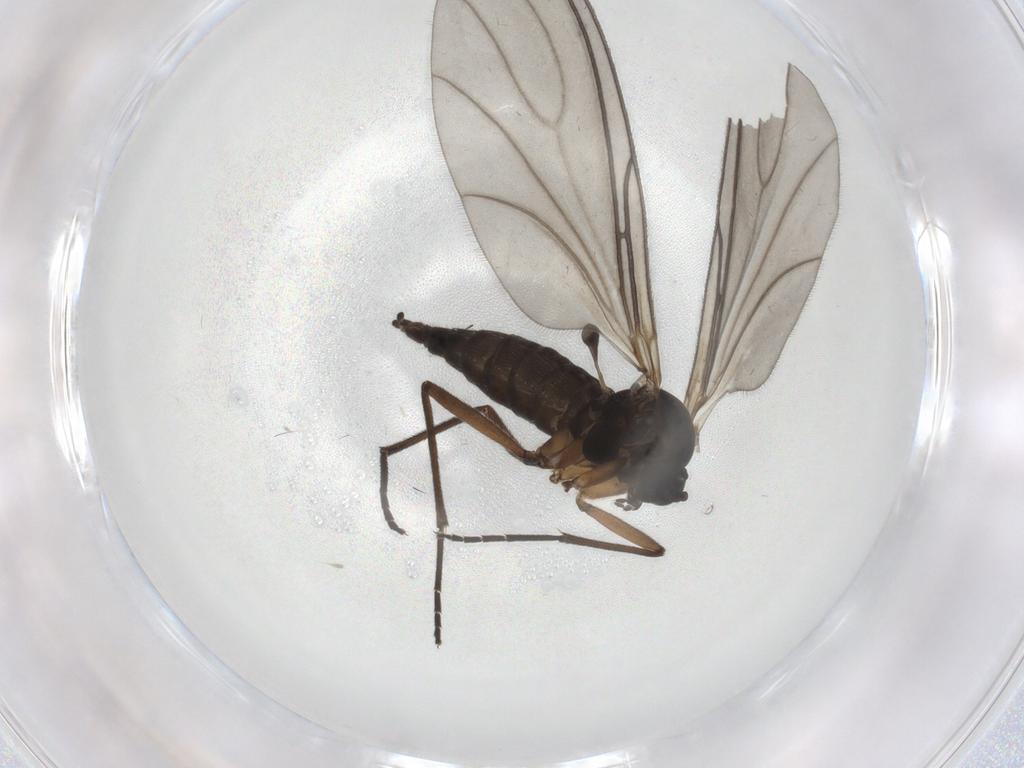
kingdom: Animalia
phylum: Arthropoda
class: Insecta
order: Diptera
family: Sciaridae
